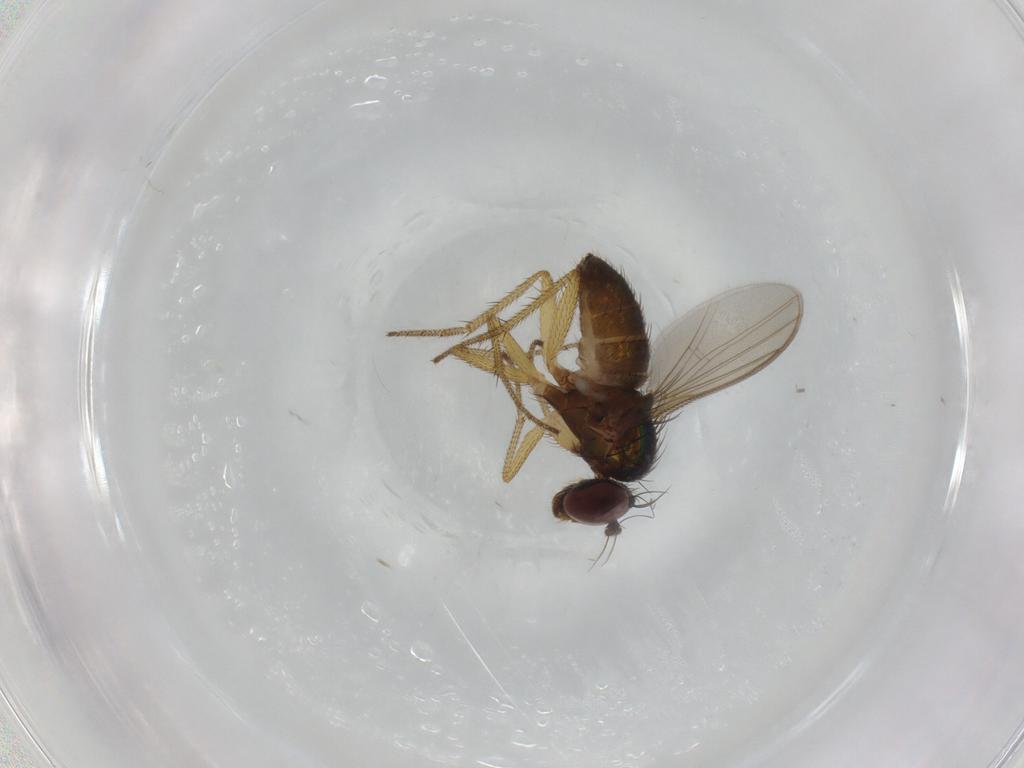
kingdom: Animalia
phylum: Arthropoda
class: Insecta
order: Diptera
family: Dolichopodidae
